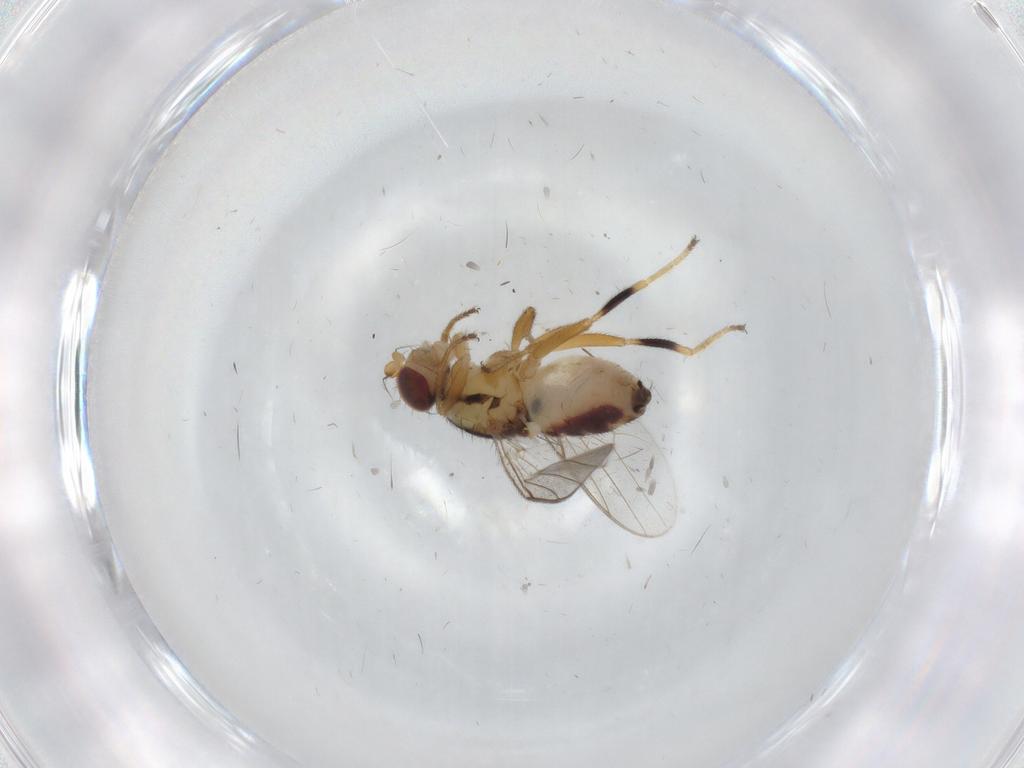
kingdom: Animalia
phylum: Arthropoda
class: Insecta
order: Diptera
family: Chloropidae
